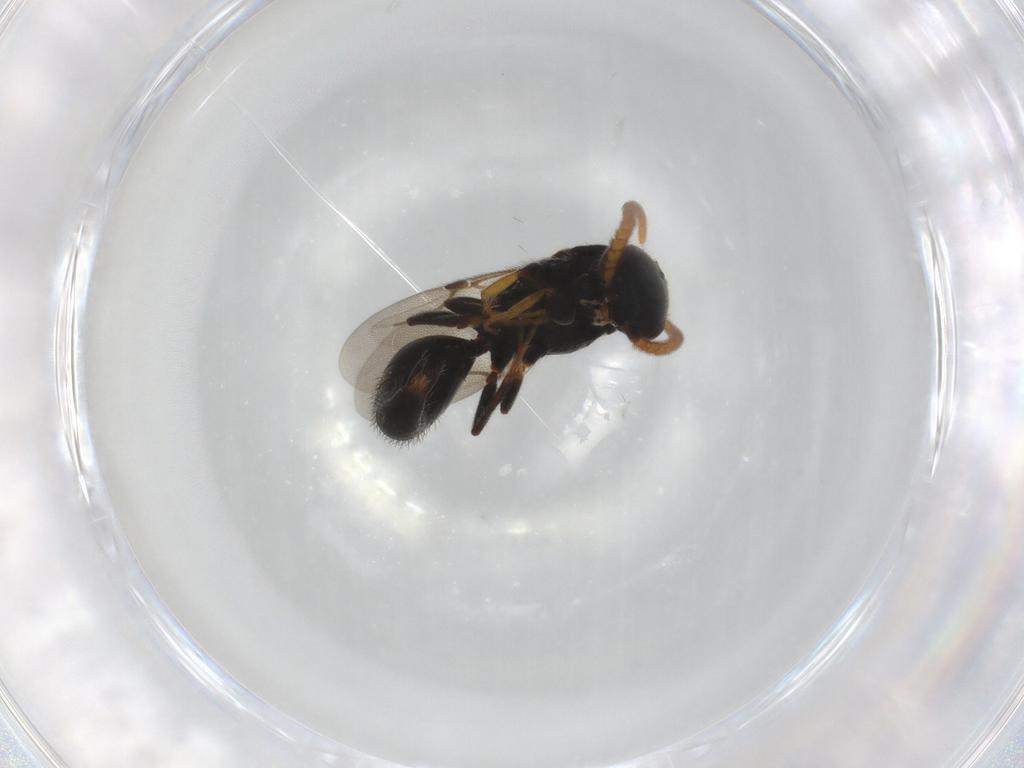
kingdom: Animalia
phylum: Arthropoda
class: Insecta
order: Hymenoptera
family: Bethylidae
